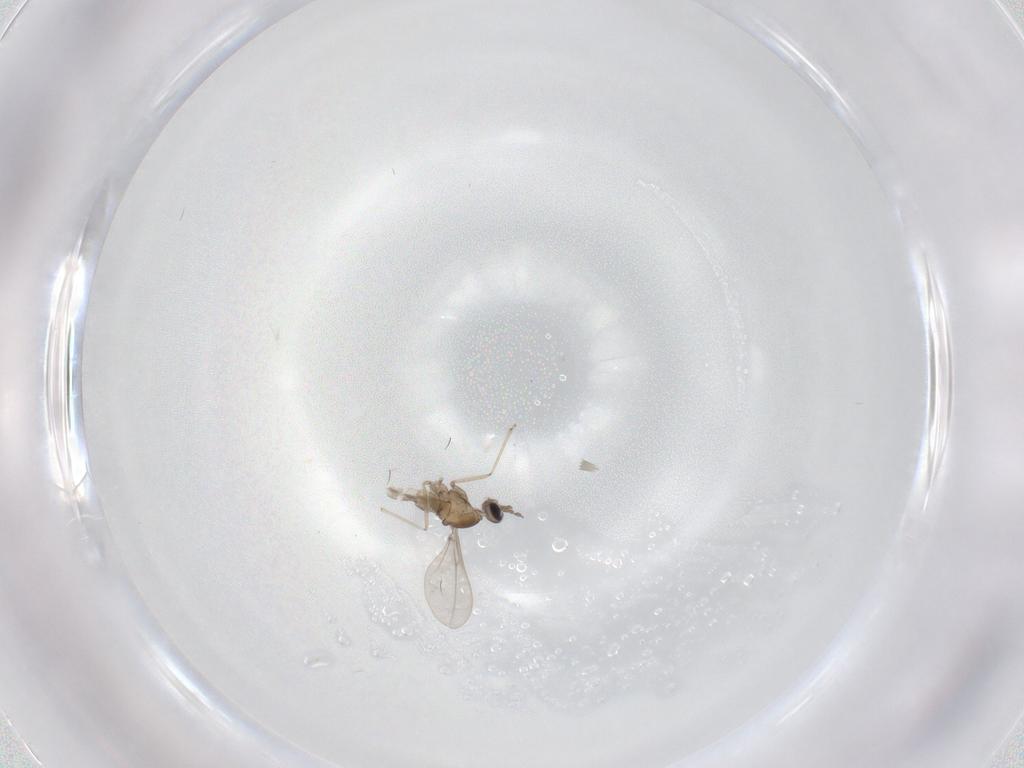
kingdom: Animalia
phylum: Arthropoda
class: Insecta
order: Diptera
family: Cecidomyiidae
